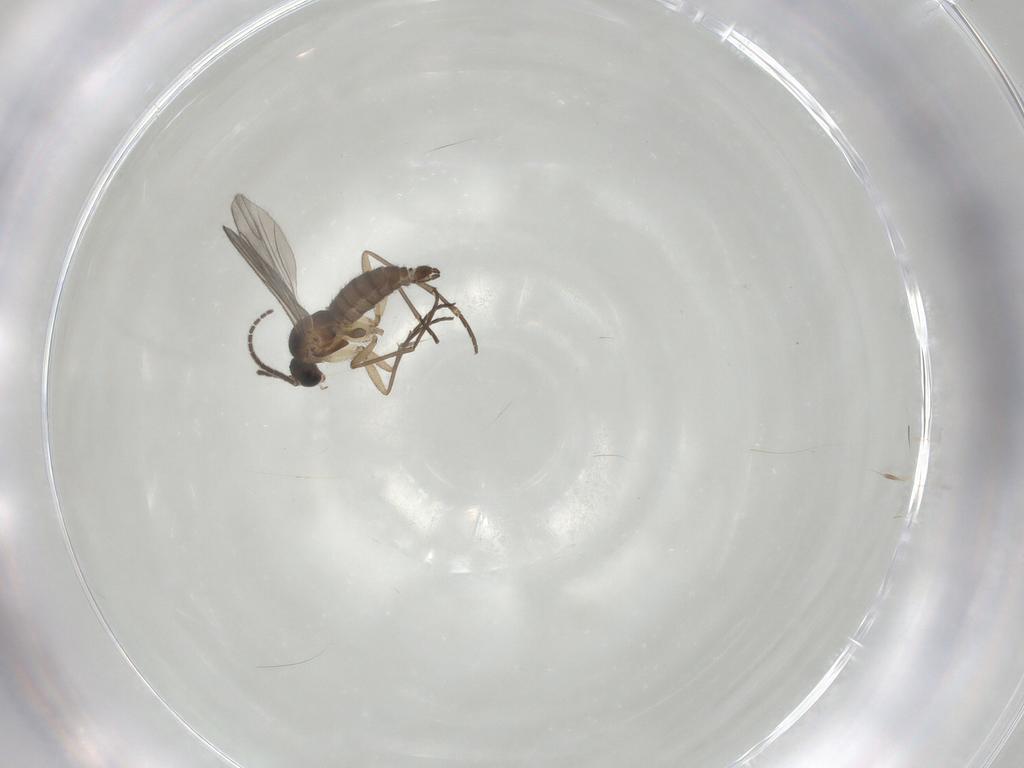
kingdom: Animalia
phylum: Arthropoda
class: Insecta
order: Diptera
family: Sciaridae
